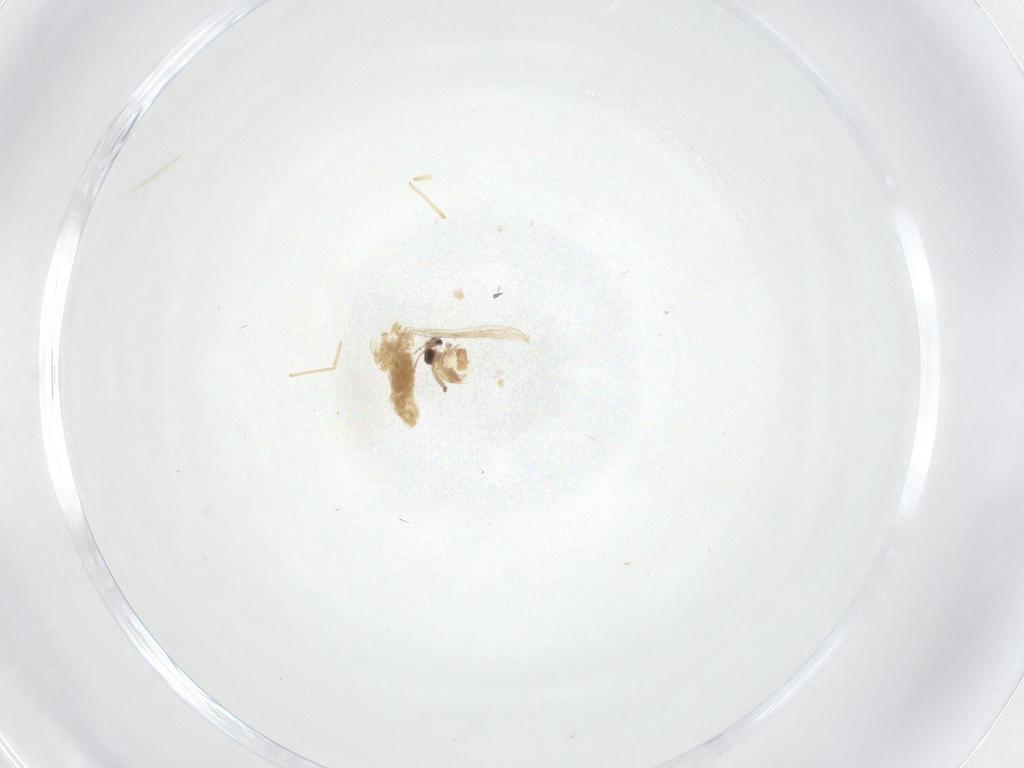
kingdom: Animalia
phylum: Arthropoda
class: Insecta
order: Diptera
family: Chironomidae
